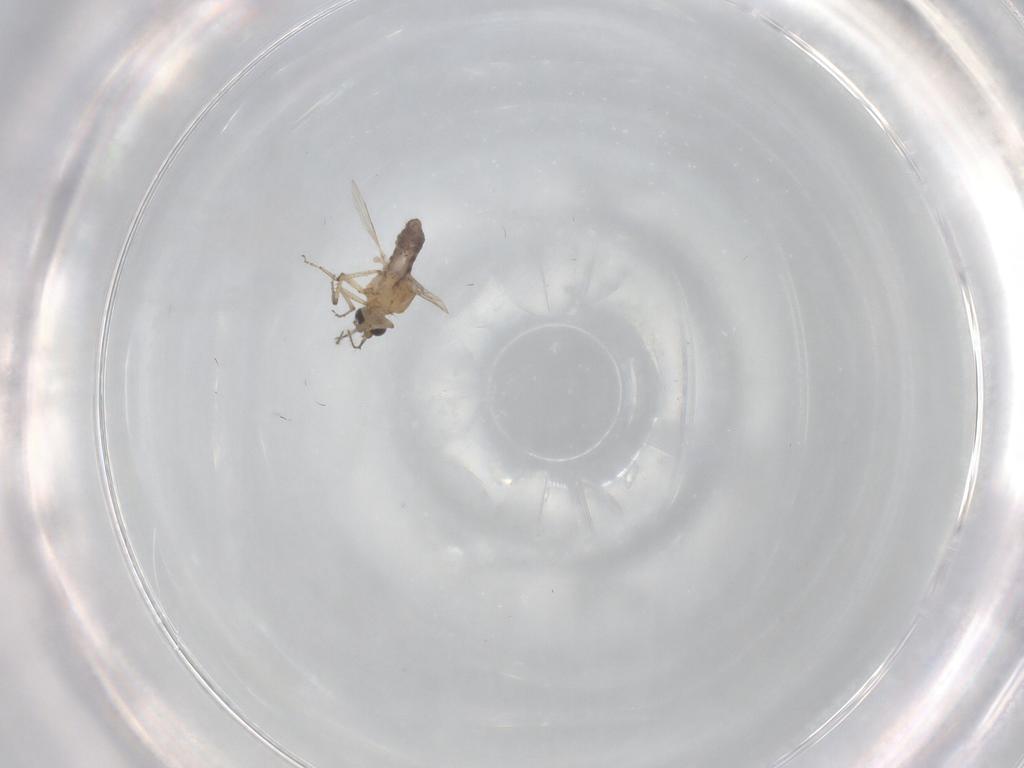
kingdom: Animalia
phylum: Arthropoda
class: Insecta
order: Diptera
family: Ceratopogonidae
